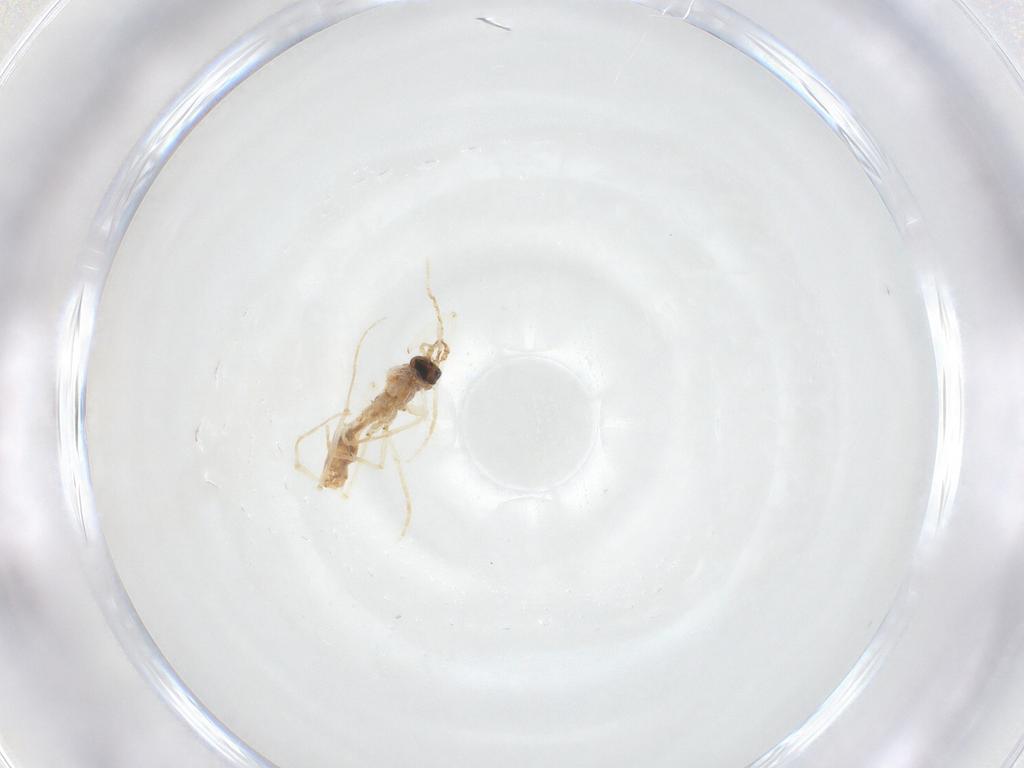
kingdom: Animalia
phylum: Arthropoda
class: Insecta
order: Diptera
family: Sciaridae
